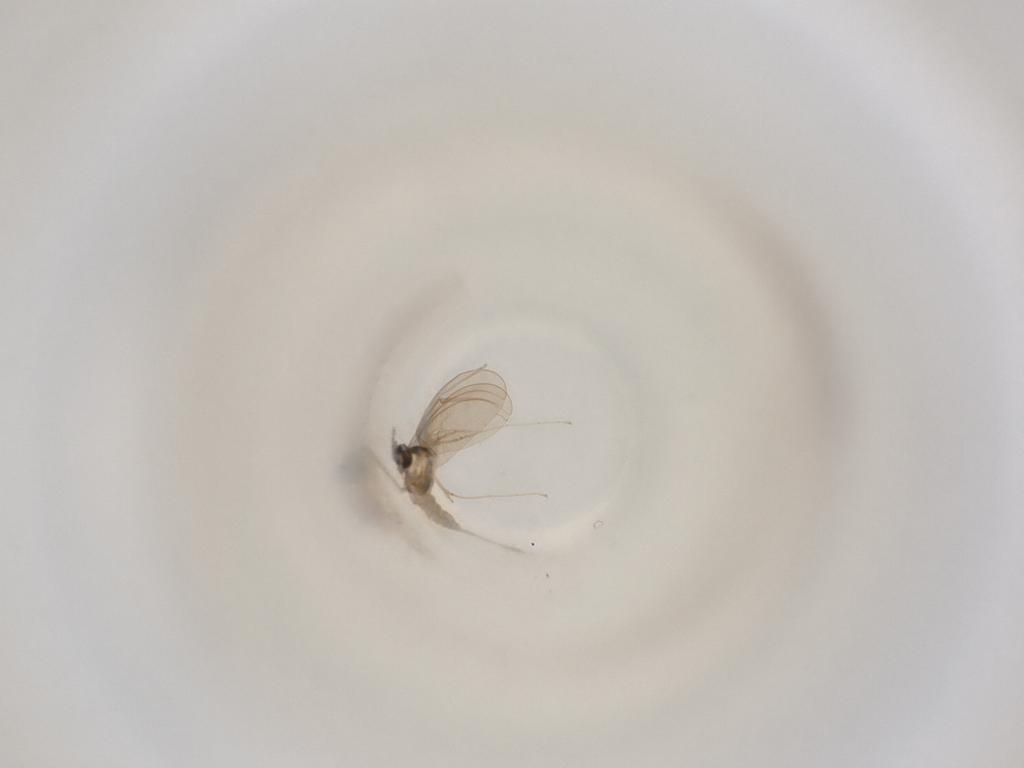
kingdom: Animalia
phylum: Arthropoda
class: Insecta
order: Diptera
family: Cecidomyiidae
